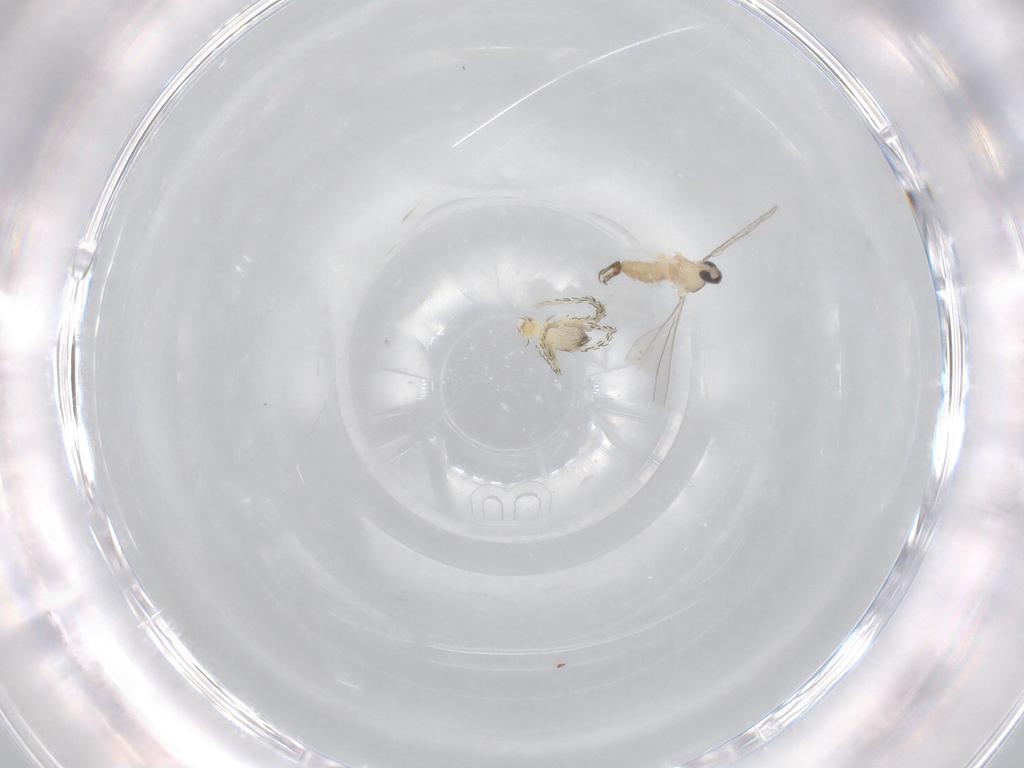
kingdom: Animalia
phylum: Arthropoda
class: Insecta
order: Diptera
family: Cecidomyiidae
